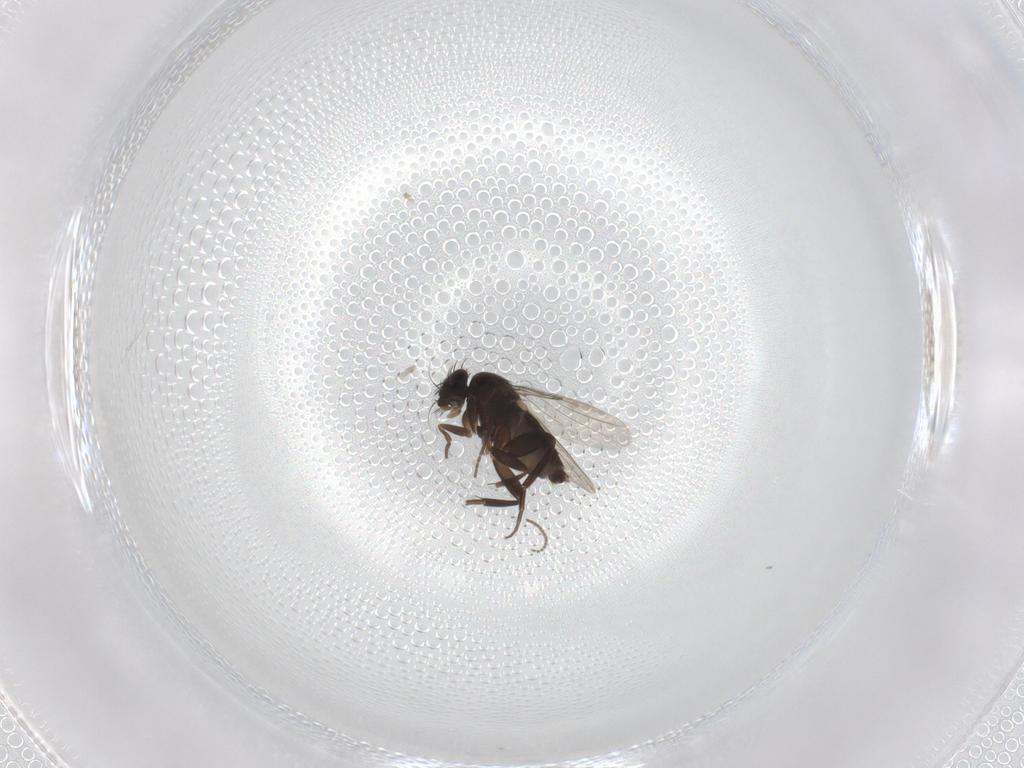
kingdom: Animalia
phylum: Arthropoda
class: Insecta
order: Diptera
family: Phoridae
